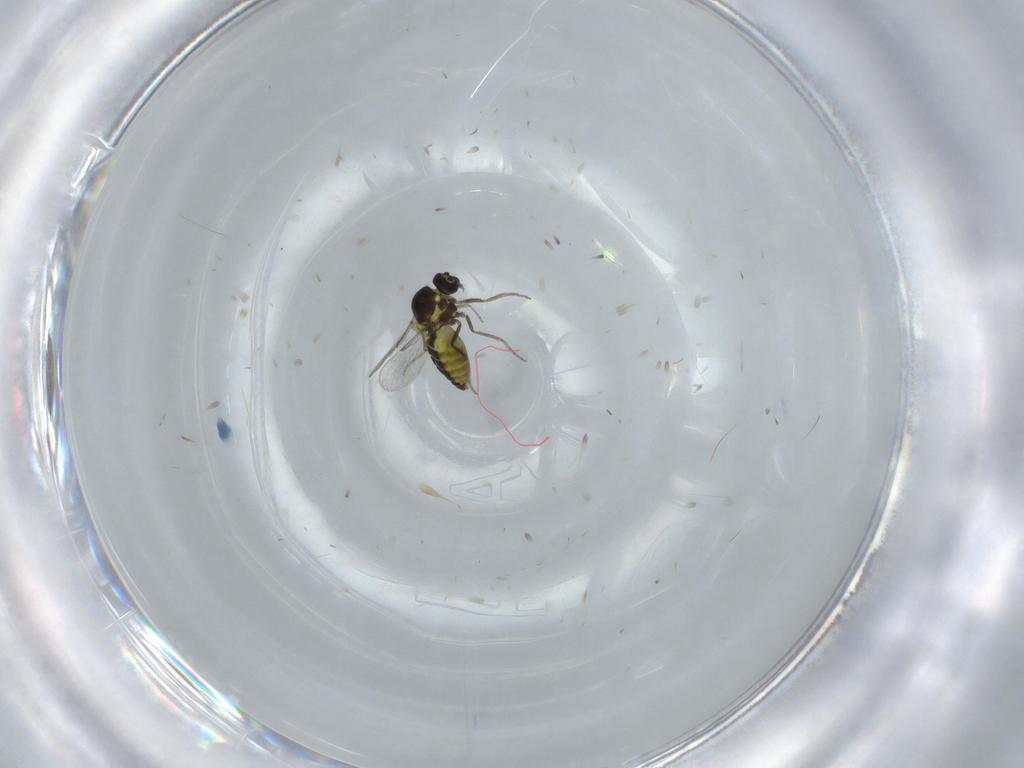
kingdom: Animalia
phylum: Arthropoda
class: Insecta
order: Diptera
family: Ceratopogonidae
